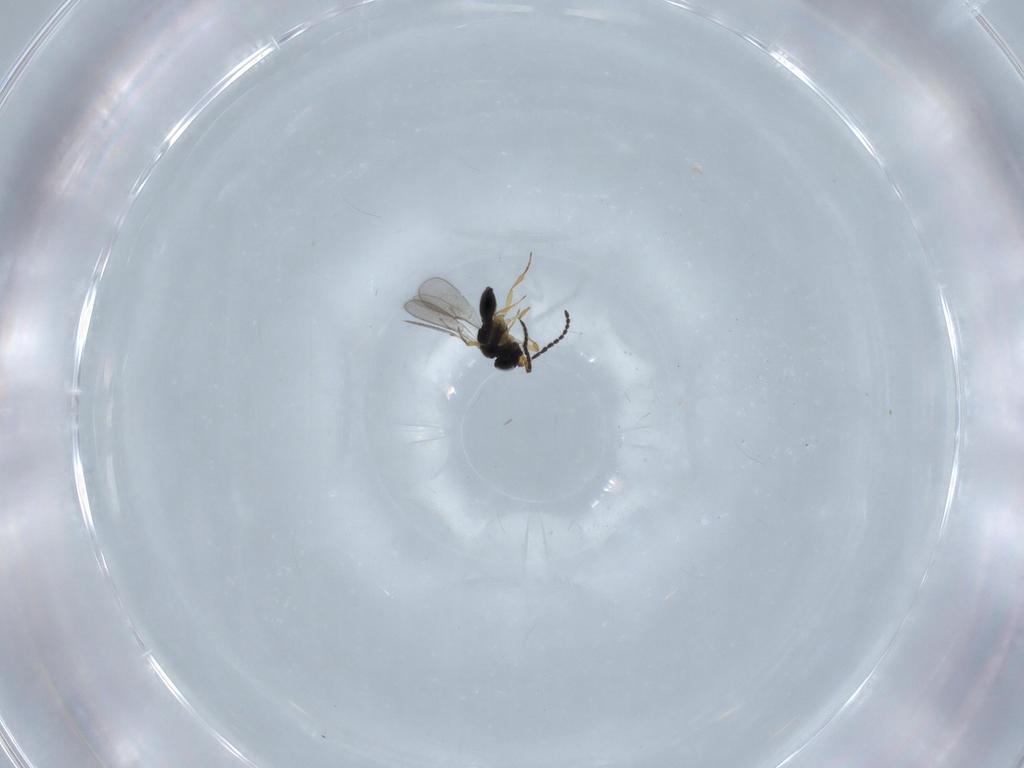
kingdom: Animalia
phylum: Arthropoda
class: Insecta
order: Hymenoptera
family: Scelionidae
